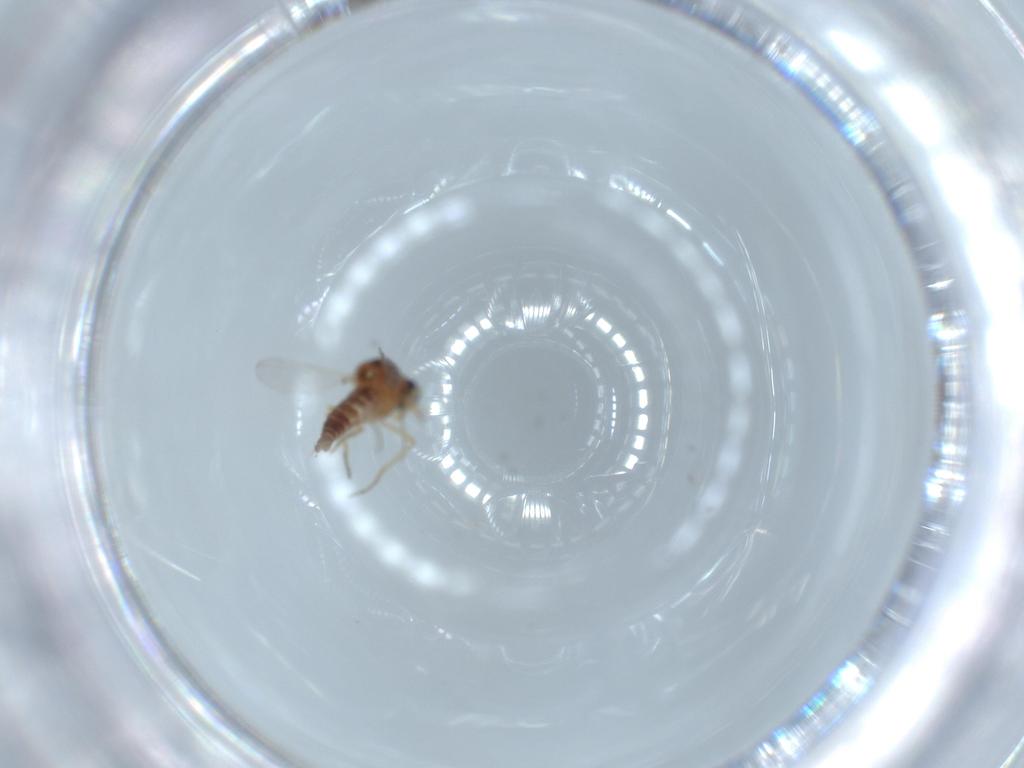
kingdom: Animalia
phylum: Arthropoda
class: Insecta
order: Diptera
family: Ceratopogonidae
